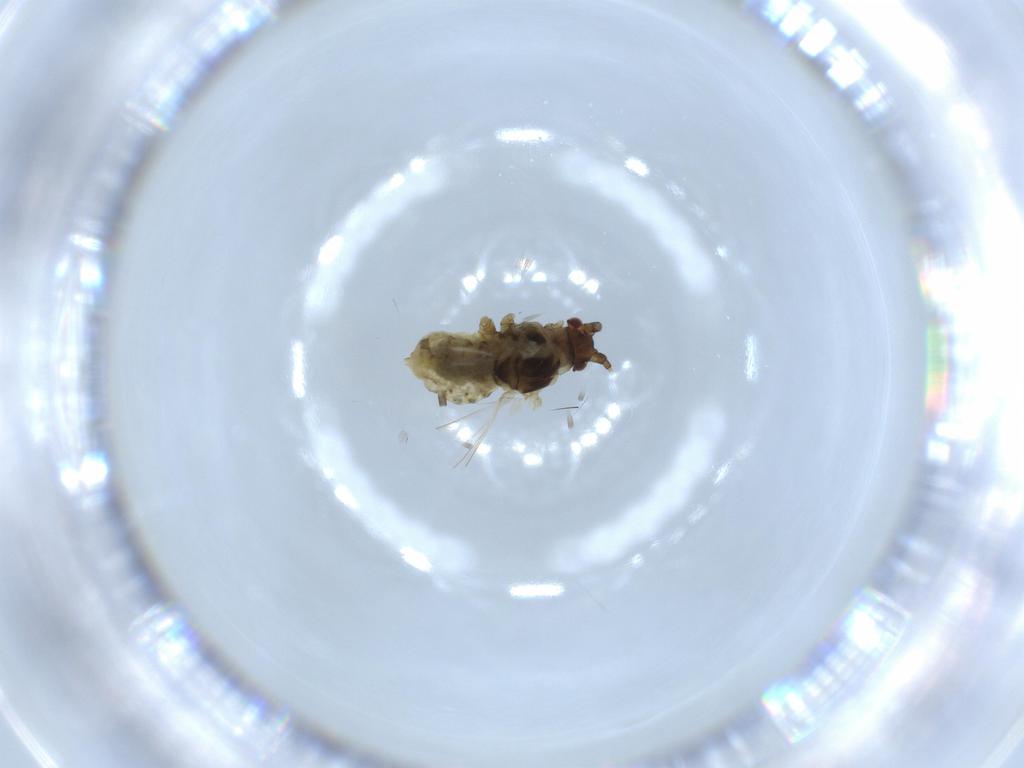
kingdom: Animalia
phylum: Arthropoda
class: Insecta
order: Hemiptera
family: Aphididae
